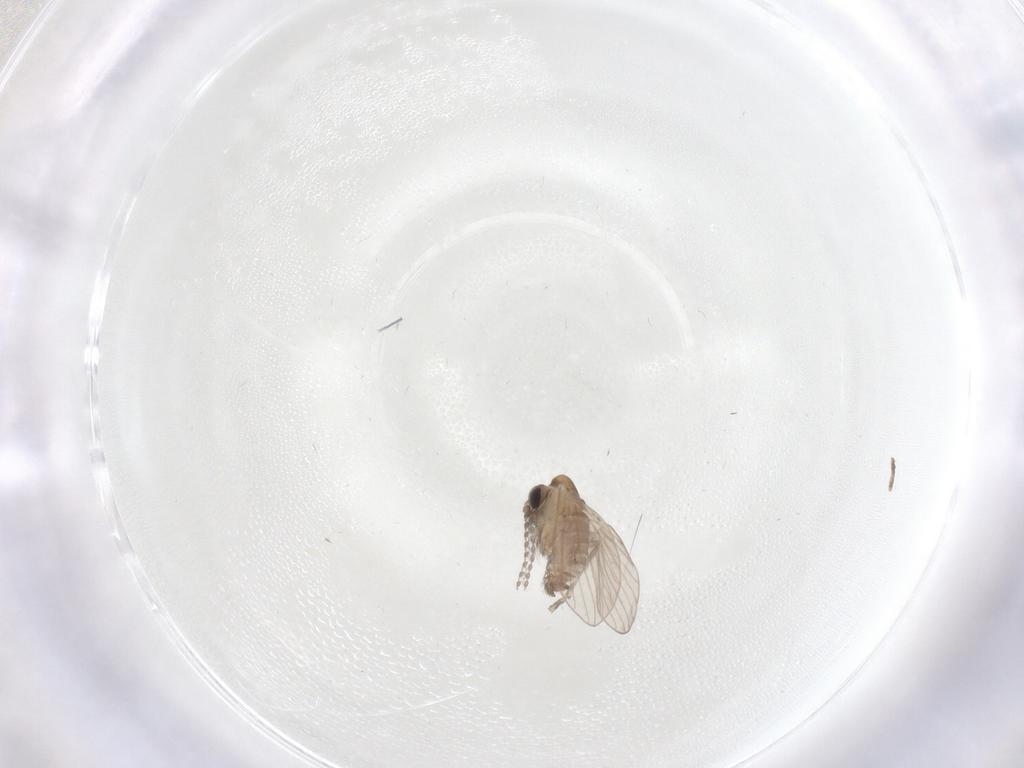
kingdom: Animalia
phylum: Arthropoda
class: Insecta
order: Diptera
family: Psychodidae
